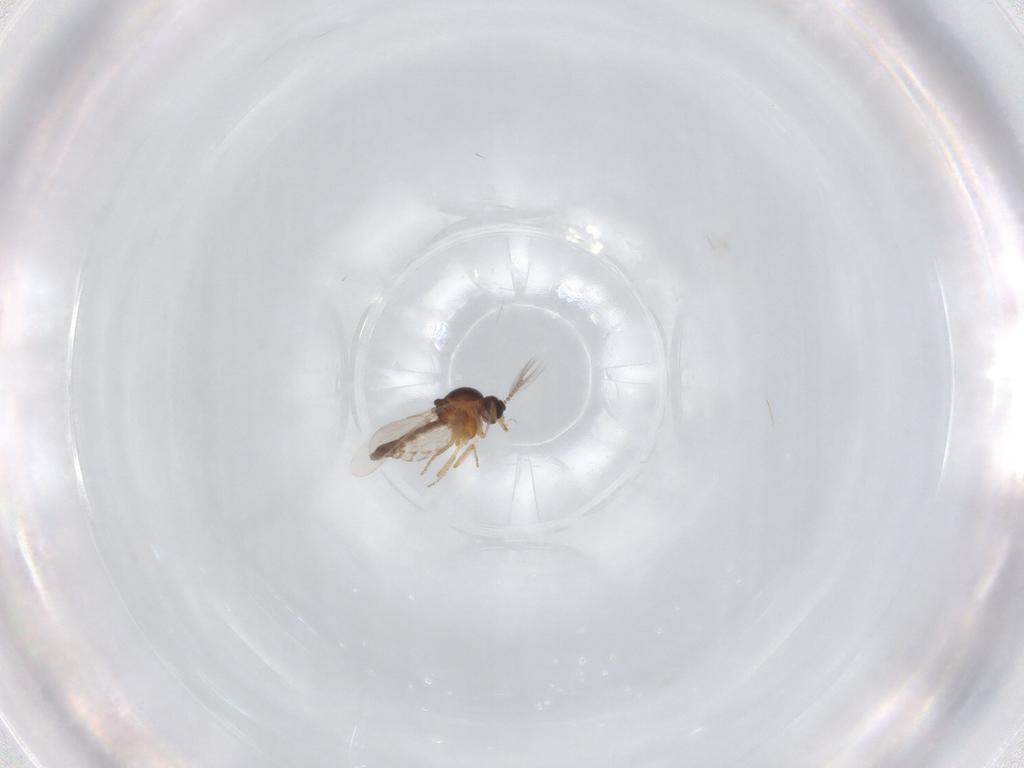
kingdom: Animalia
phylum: Arthropoda
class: Insecta
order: Diptera
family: Ceratopogonidae
